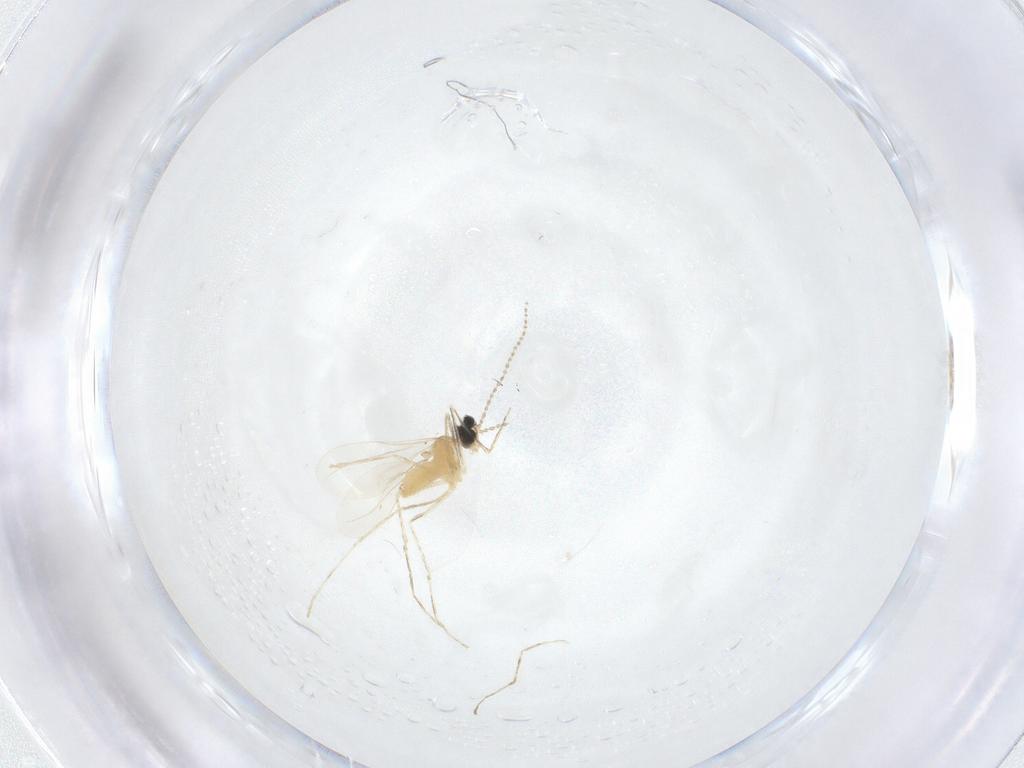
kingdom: Animalia
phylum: Arthropoda
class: Insecta
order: Diptera
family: Cecidomyiidae
